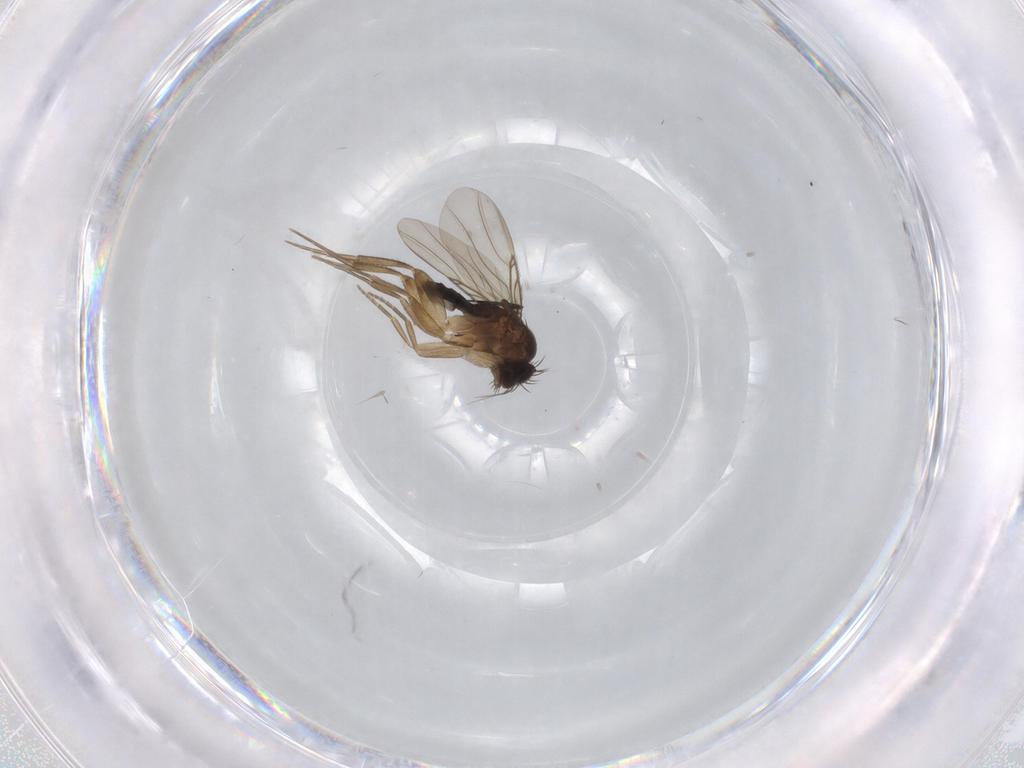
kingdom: Animalia
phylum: Arthropoda
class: Insecta
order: Diptera
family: Phoridae
